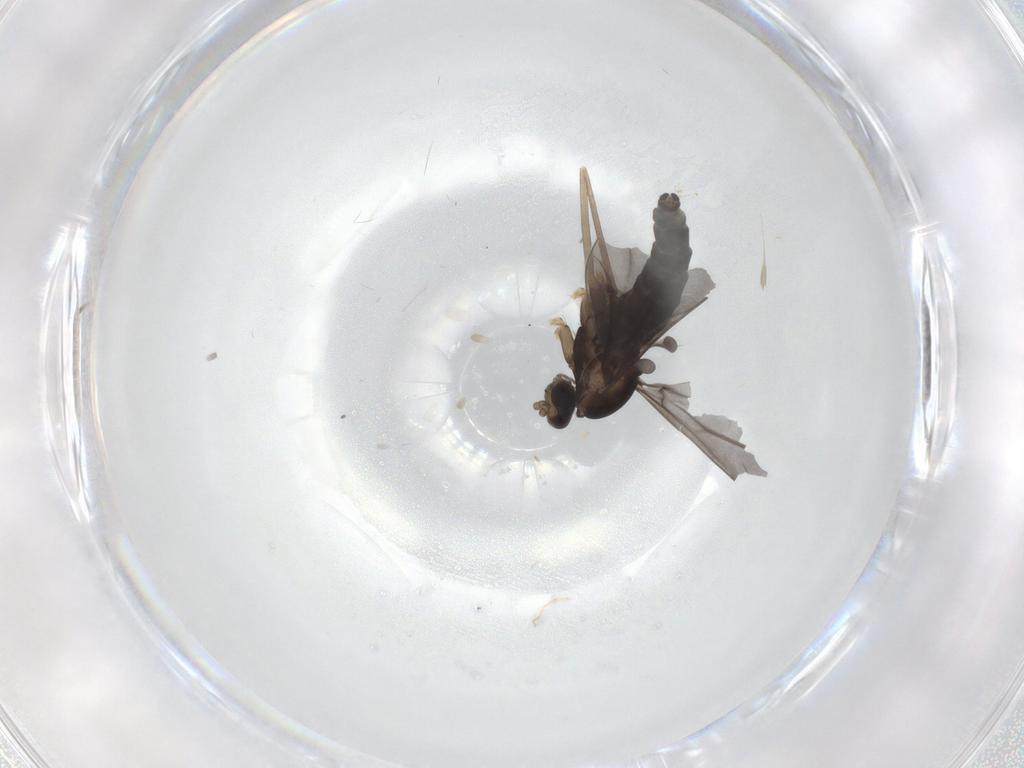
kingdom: Animalia
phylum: Arthropoda
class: Insecta
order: Diptera
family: Cecidomyiidae
